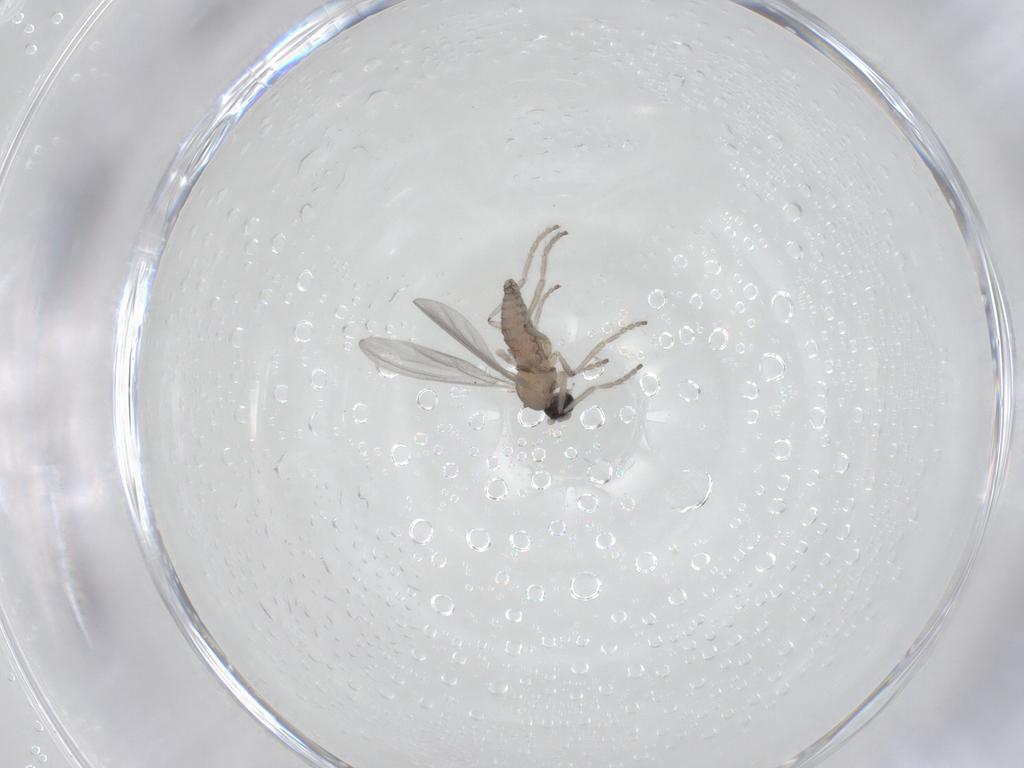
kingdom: Animalia
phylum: Arthropoda
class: Insecta
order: Diptera
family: Cecidomyiidae
